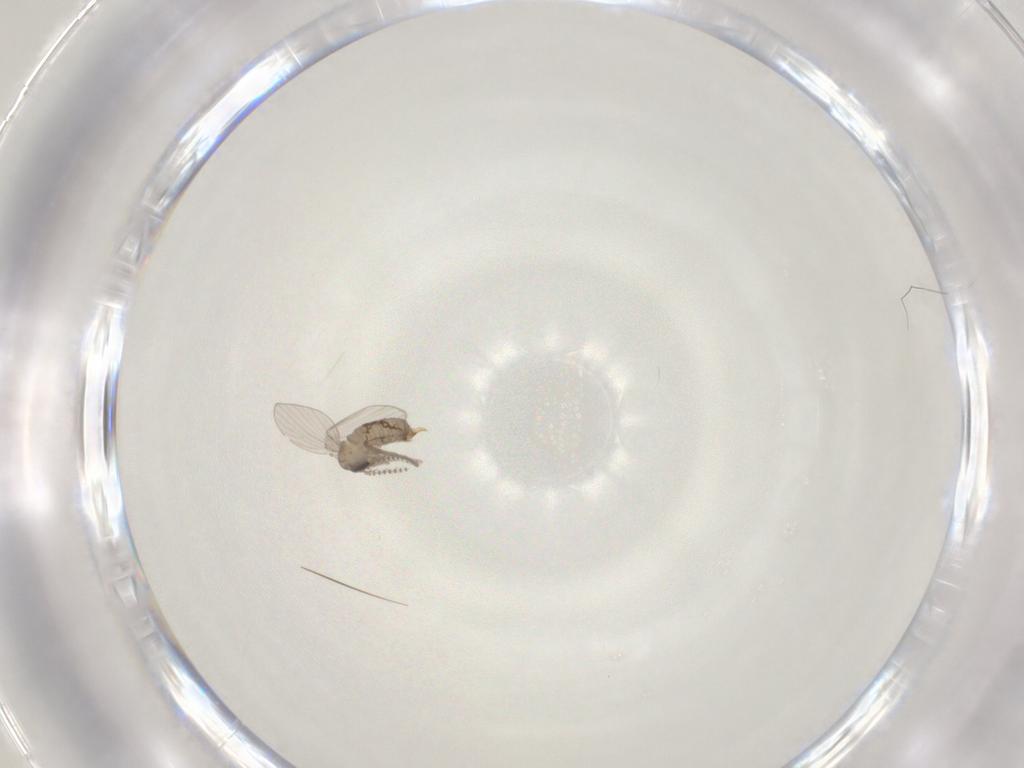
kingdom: Animalia
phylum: Arthropoda
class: Insecta
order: Diptera
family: Psychodidae
